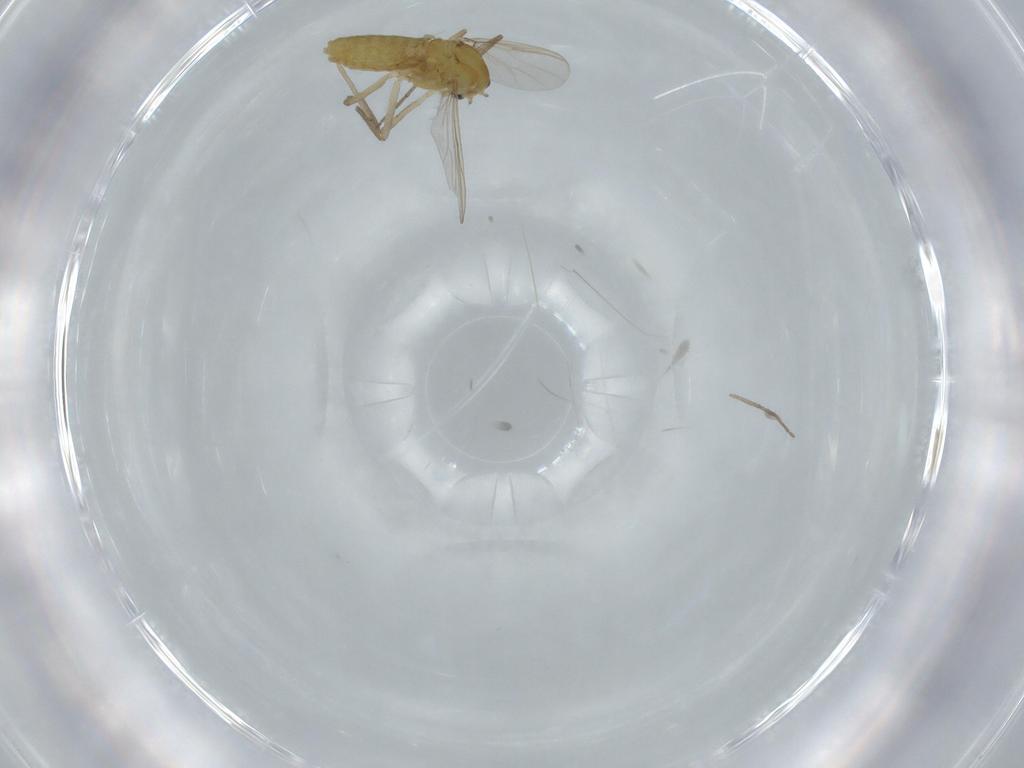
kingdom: Animalia
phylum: Arthropoda
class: Insecta
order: Diptera
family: Chironomidae
